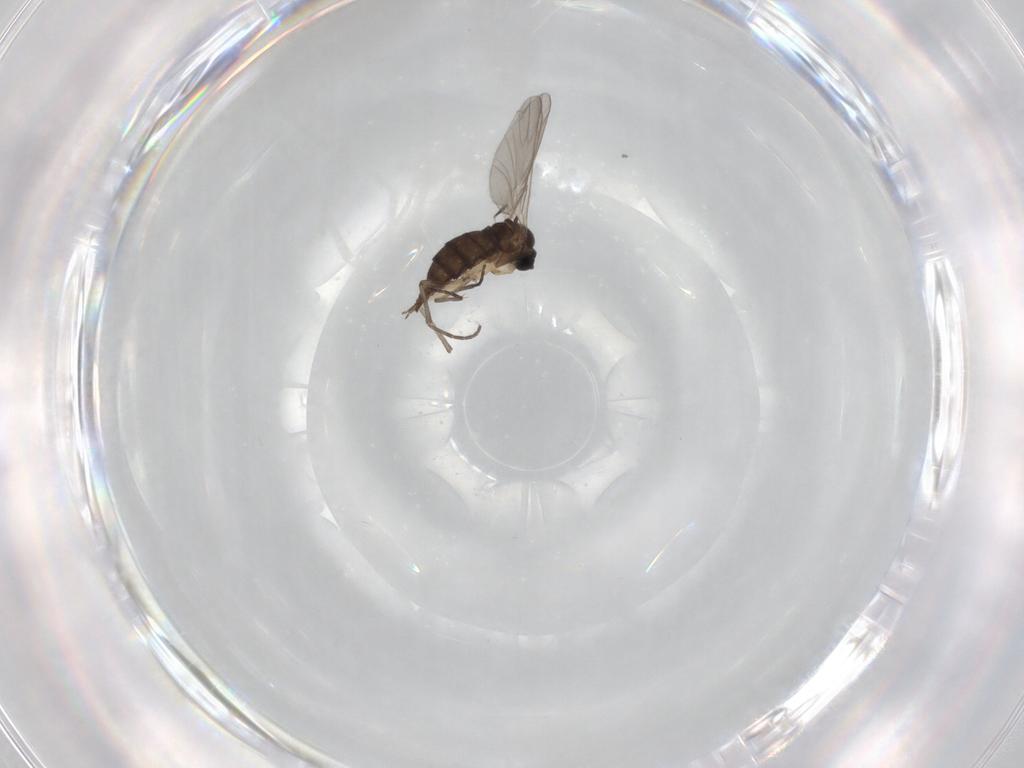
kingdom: Animalia
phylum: Arthropoda
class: Insecta
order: Diptera
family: Sciaridae
